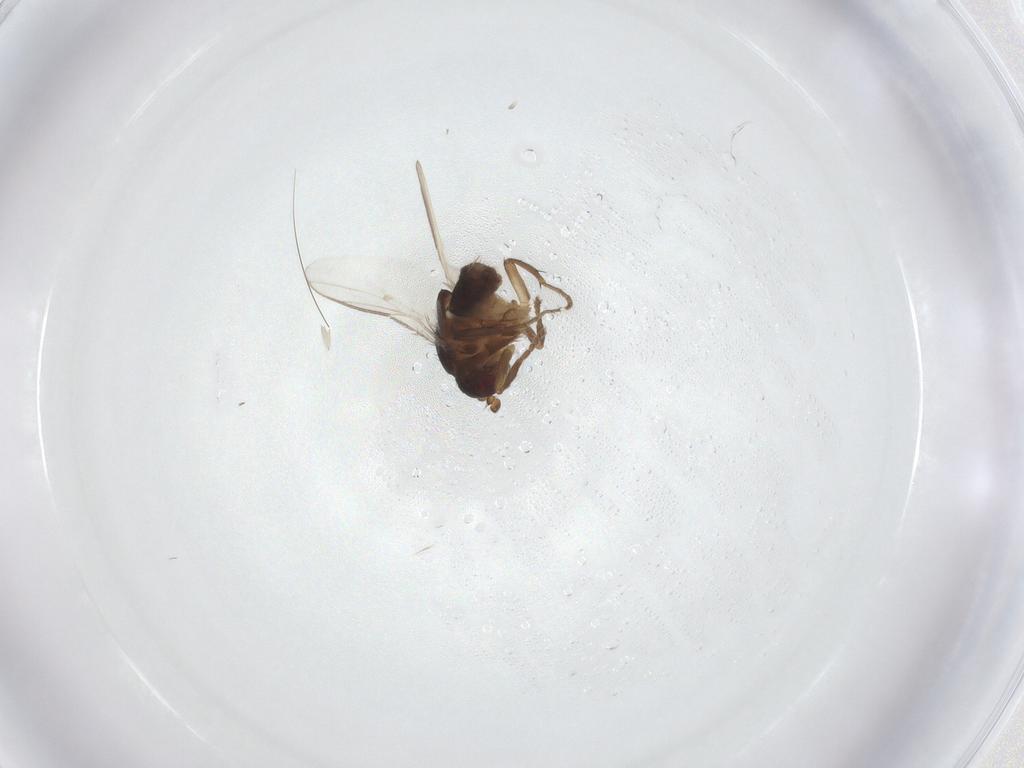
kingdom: Animalia
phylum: Arthropoda
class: Insecta
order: Diptera
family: Sphaeroceridae
